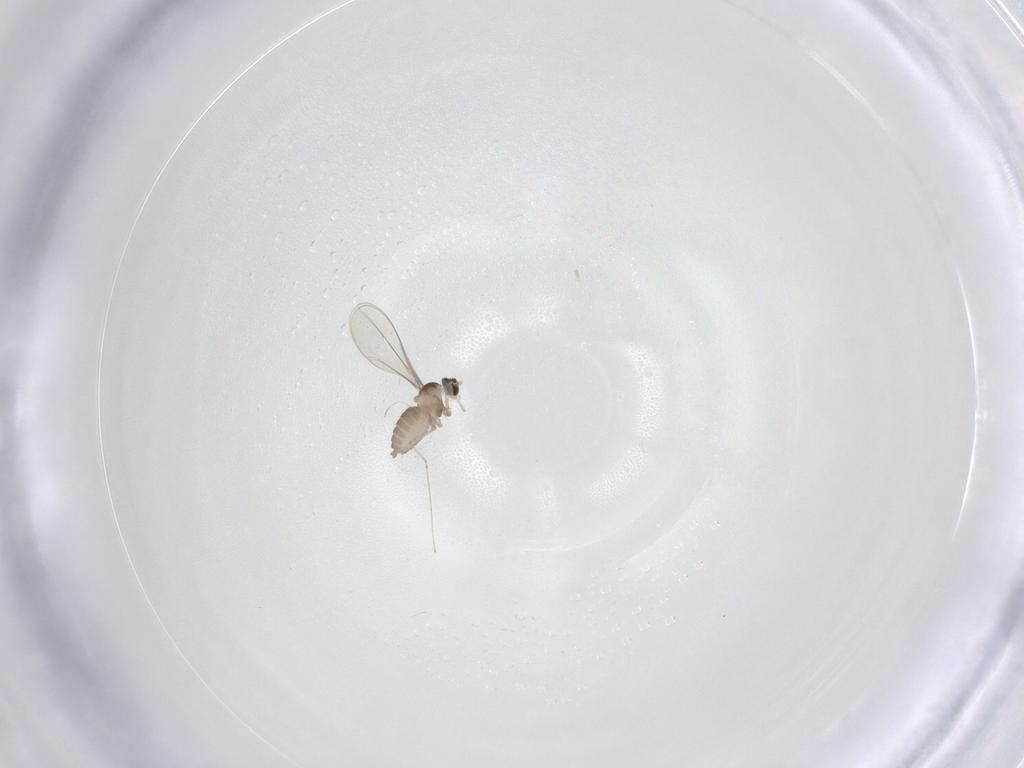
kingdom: Animalia
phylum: Arthropoda
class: Insecta
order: Diptera
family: Cecidomyiidae
